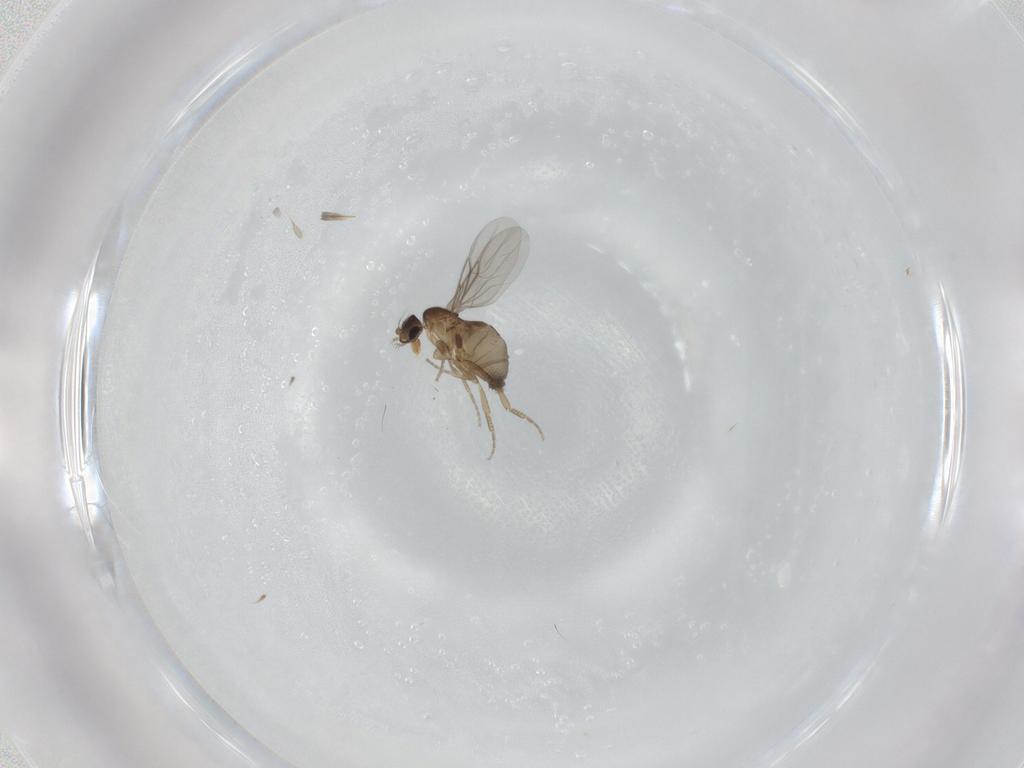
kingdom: Animalia
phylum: Arthropoda
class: Insecta
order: Diptera
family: Phoridae
